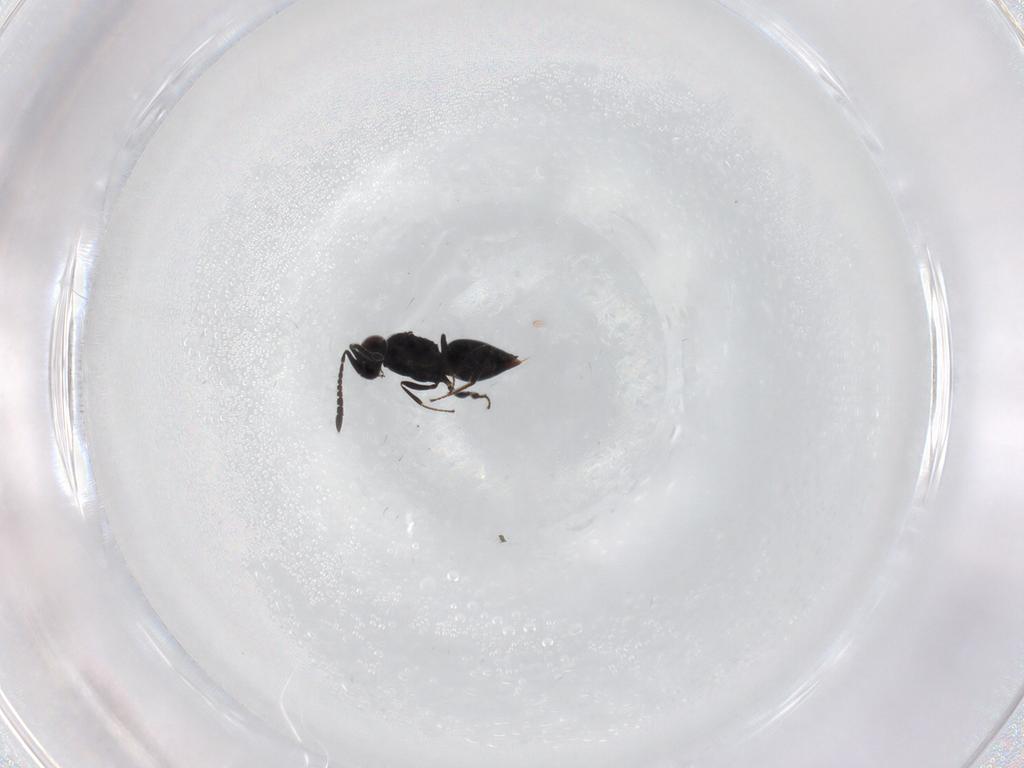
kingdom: Animalia
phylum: Arthropoda
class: Insecta
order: Hymenoptera
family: Ceraphronidae
